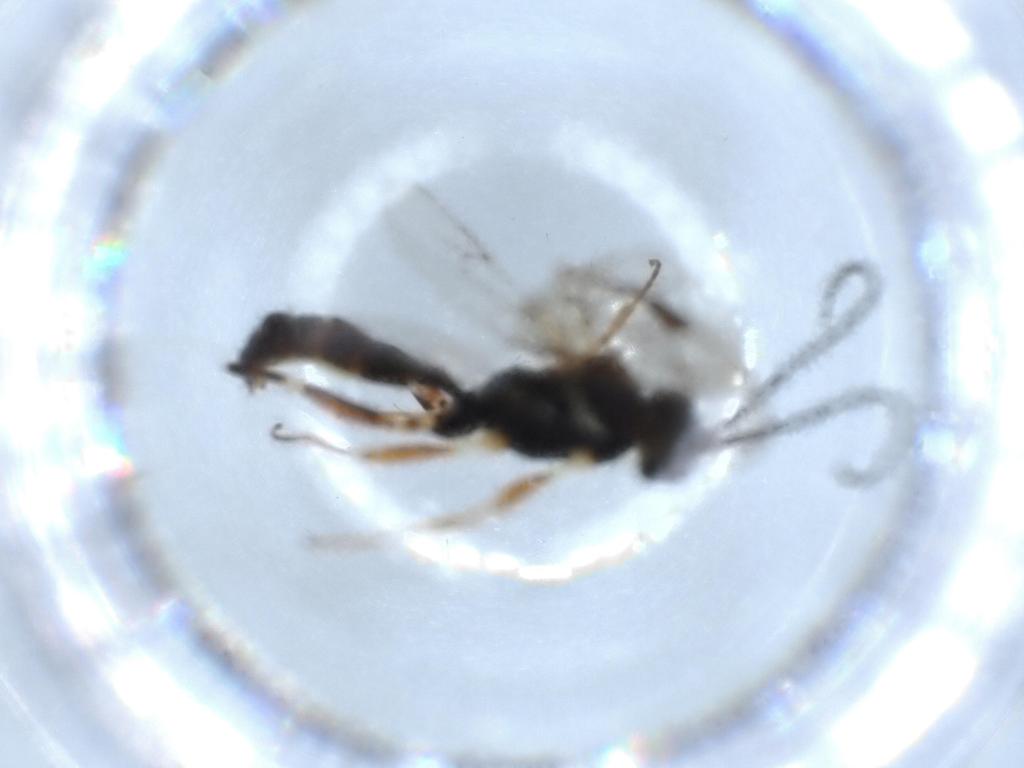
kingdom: Animalia
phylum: Arthropoda
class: Insecta
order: Hymenoptera
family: Ichneumonidae
